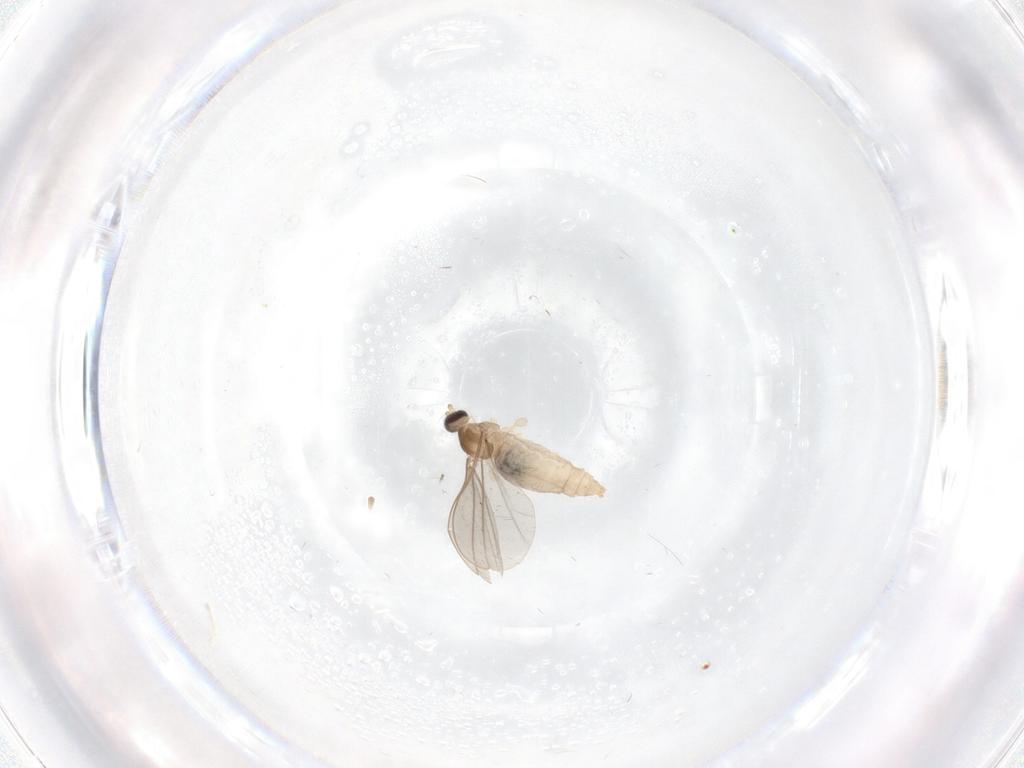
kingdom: Animalia
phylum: Arthropoda
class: Insecta
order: Diptera
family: Cecidomyiidae
